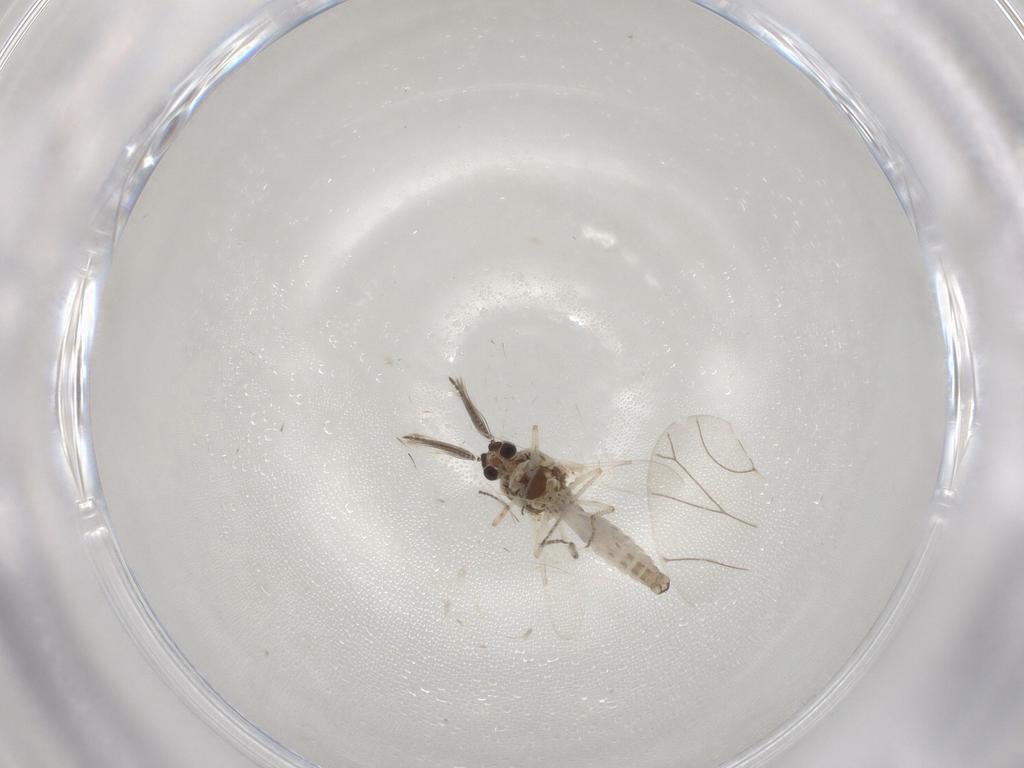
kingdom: Animalia
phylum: Arthropoda
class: Insecta
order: Diptera
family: Ceratopogonidae
